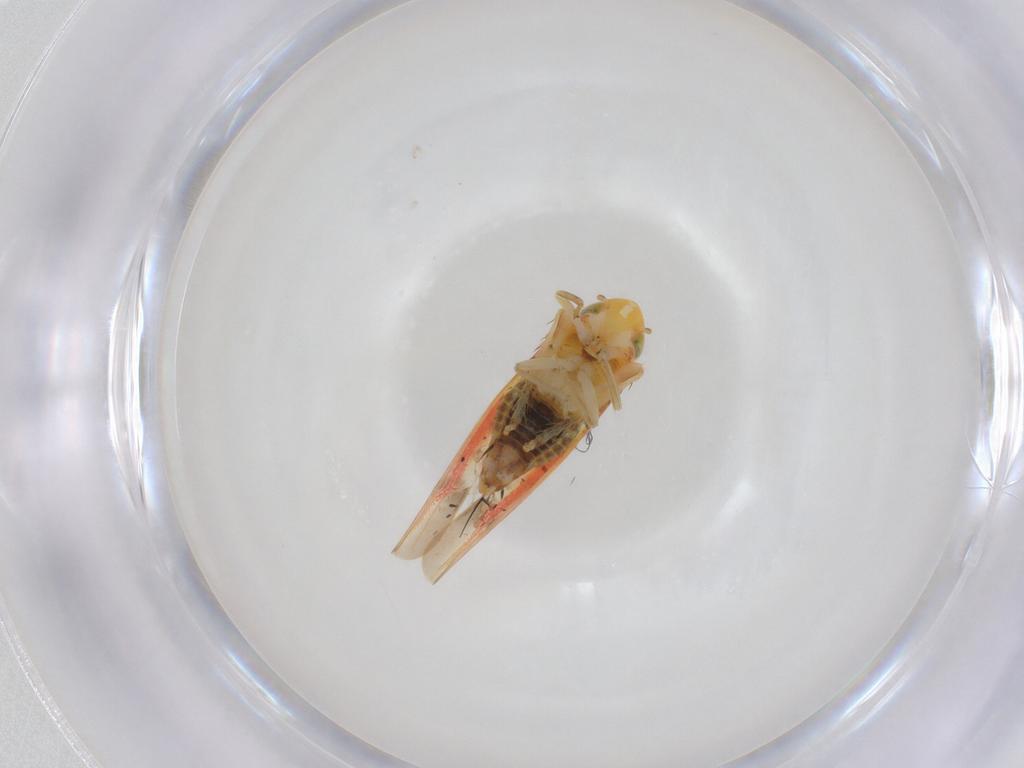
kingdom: Animalia
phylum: Arthropoda
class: Insecta
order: Hemiptera
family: Cicadellidae
